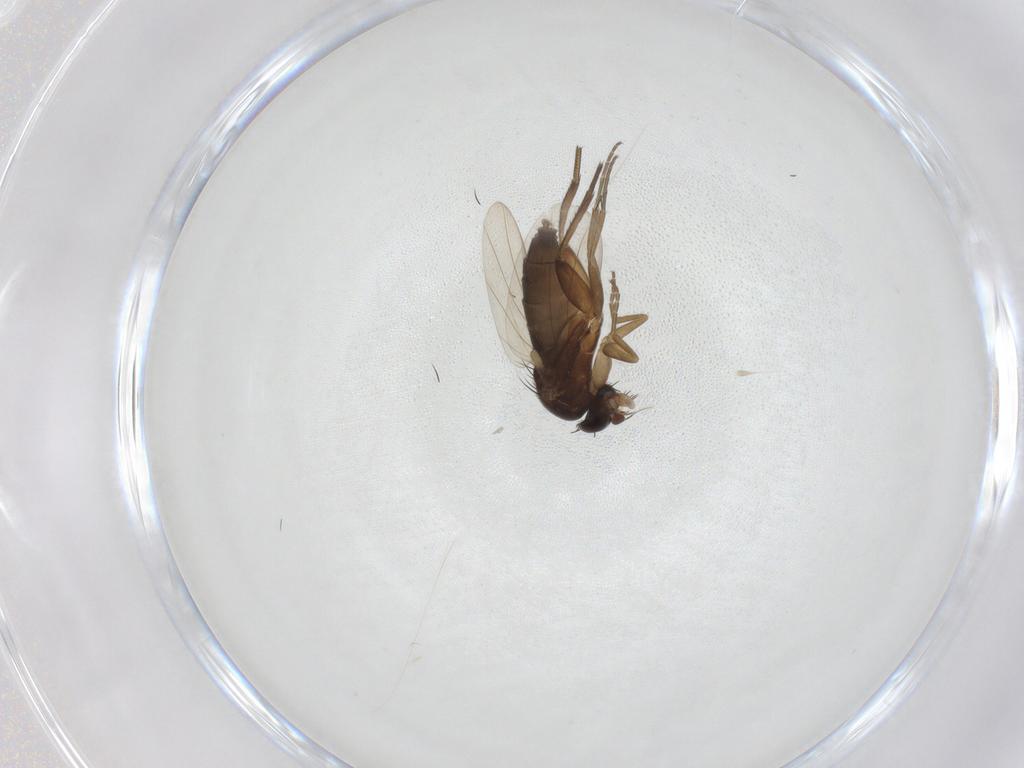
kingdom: Animalia
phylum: Arthropoda
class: Insecta
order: Diptera
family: Phoridae
